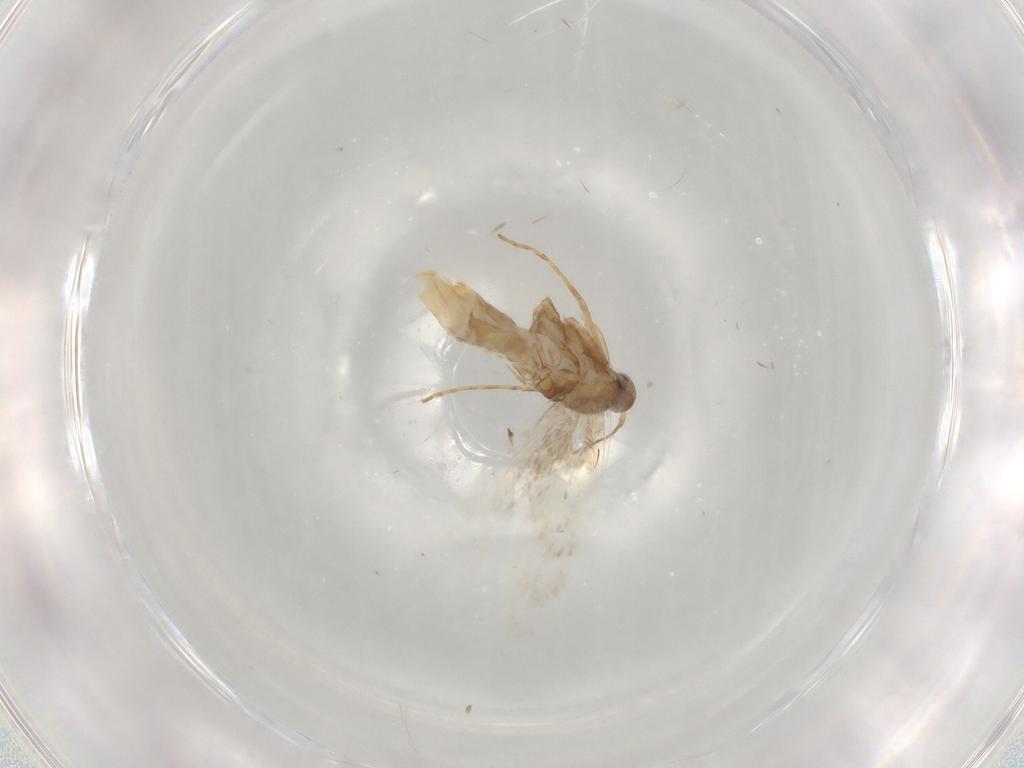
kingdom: Animalia
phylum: Arthropoda
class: Insecta
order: Lepidoptera
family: Gracillariidae
